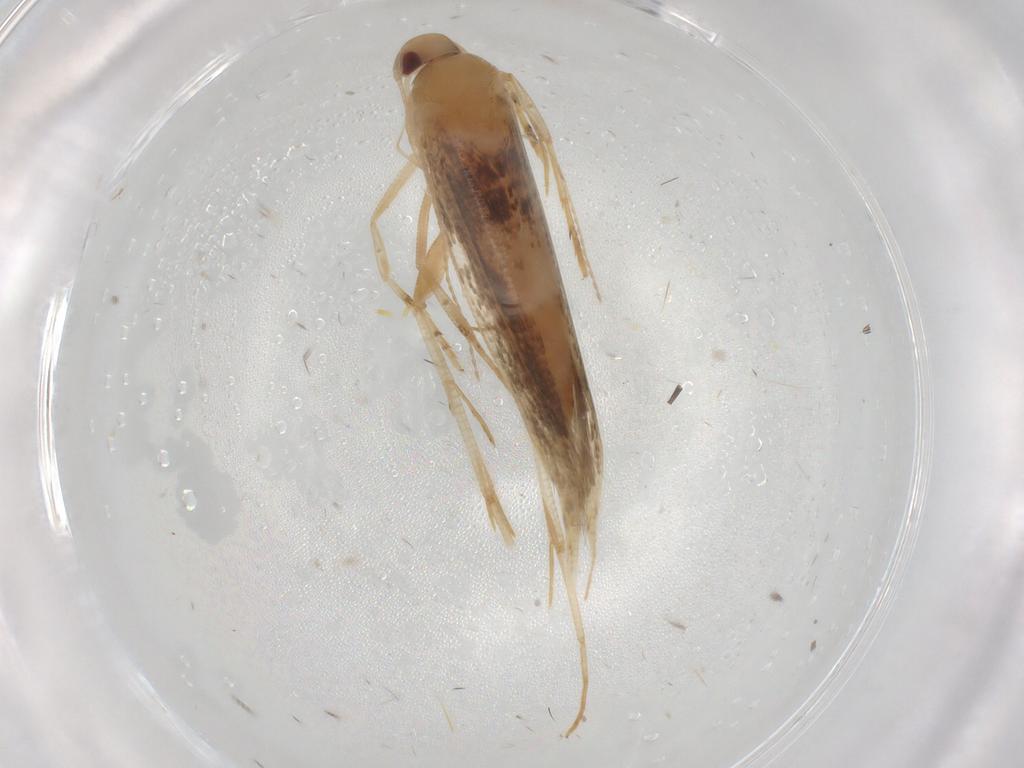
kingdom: Animalia
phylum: Arthropoda
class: Insecta
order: Lepidoptera
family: Cosmopterigidae
